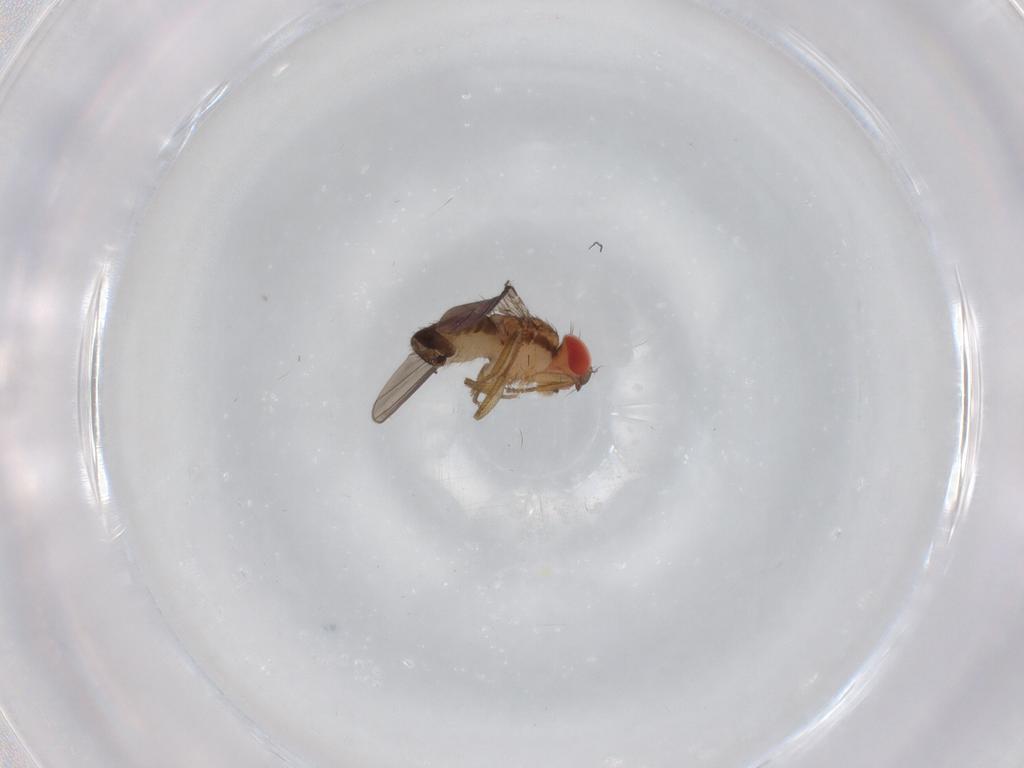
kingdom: Animalia
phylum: Arthropoda
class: Insecta
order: Diptera
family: Drosophilidae
